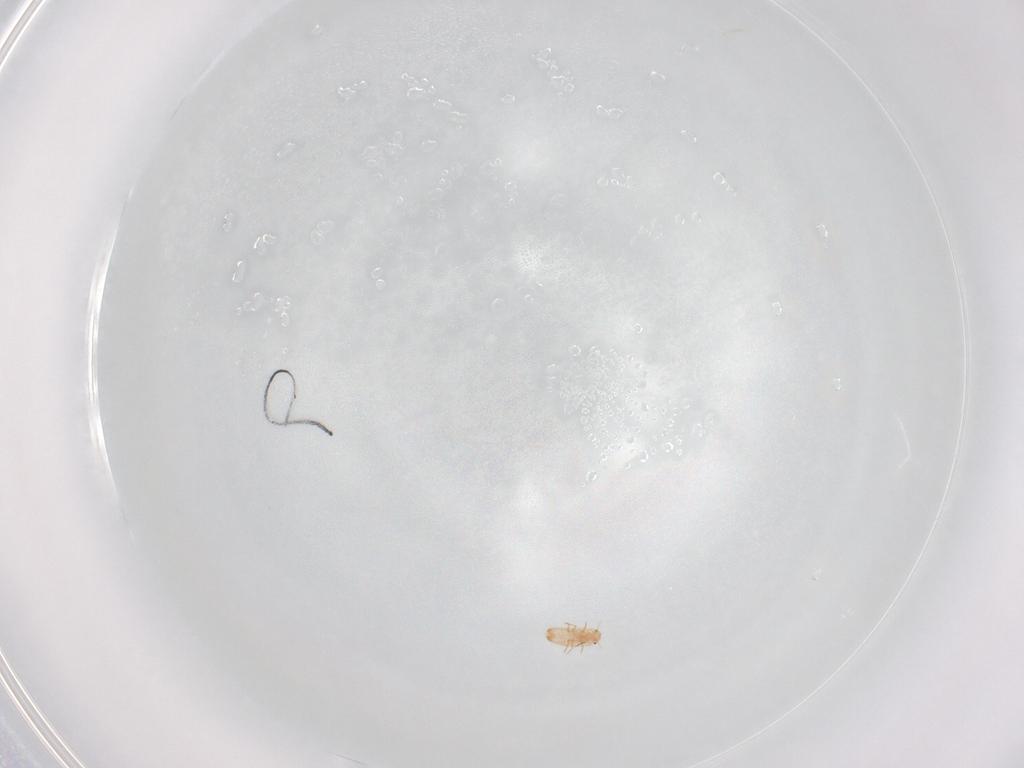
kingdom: Animalia
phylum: Arthropoda
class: Insecta
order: Hemiptera
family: Coccidae
